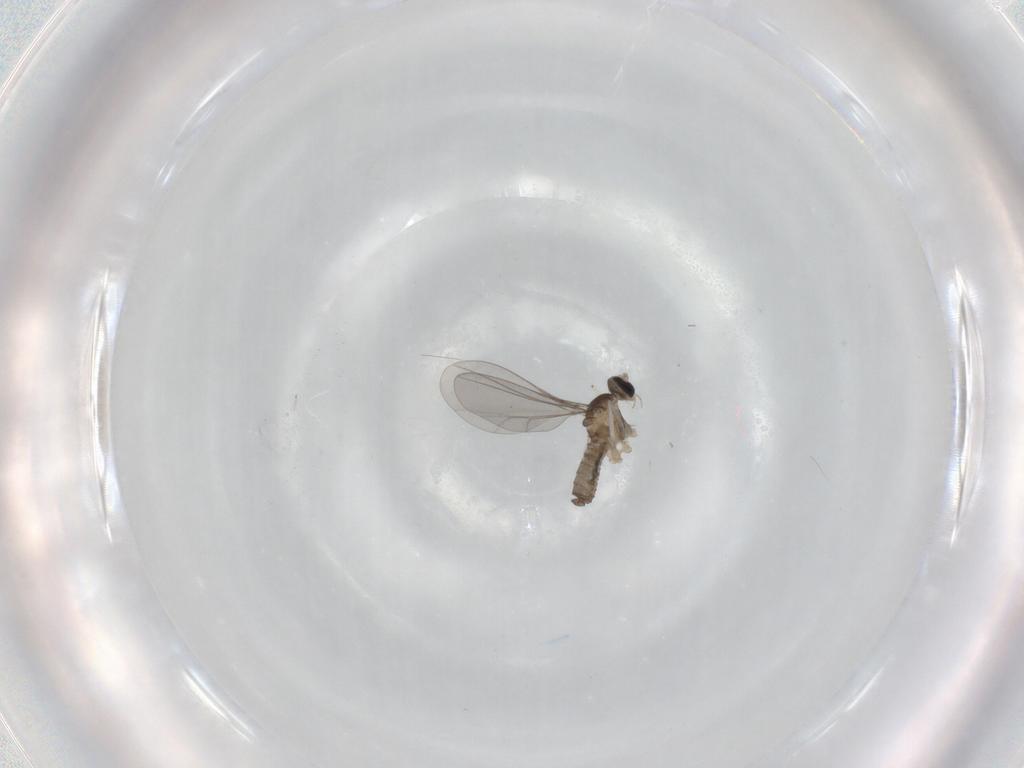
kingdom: Animalia
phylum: Arthropoda
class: Insecta
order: Diptera
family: Cecidomyiidae
